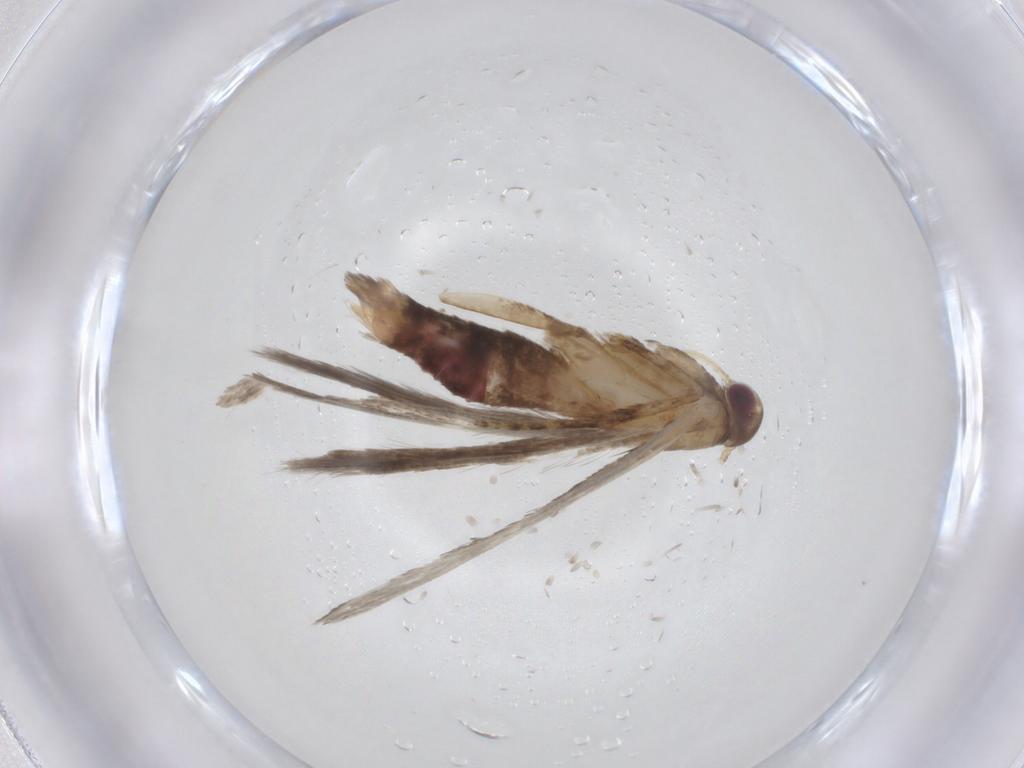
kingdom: Animalia
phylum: Arthropoda
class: Insecta
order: Lepidoptera
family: Gelechiidae
